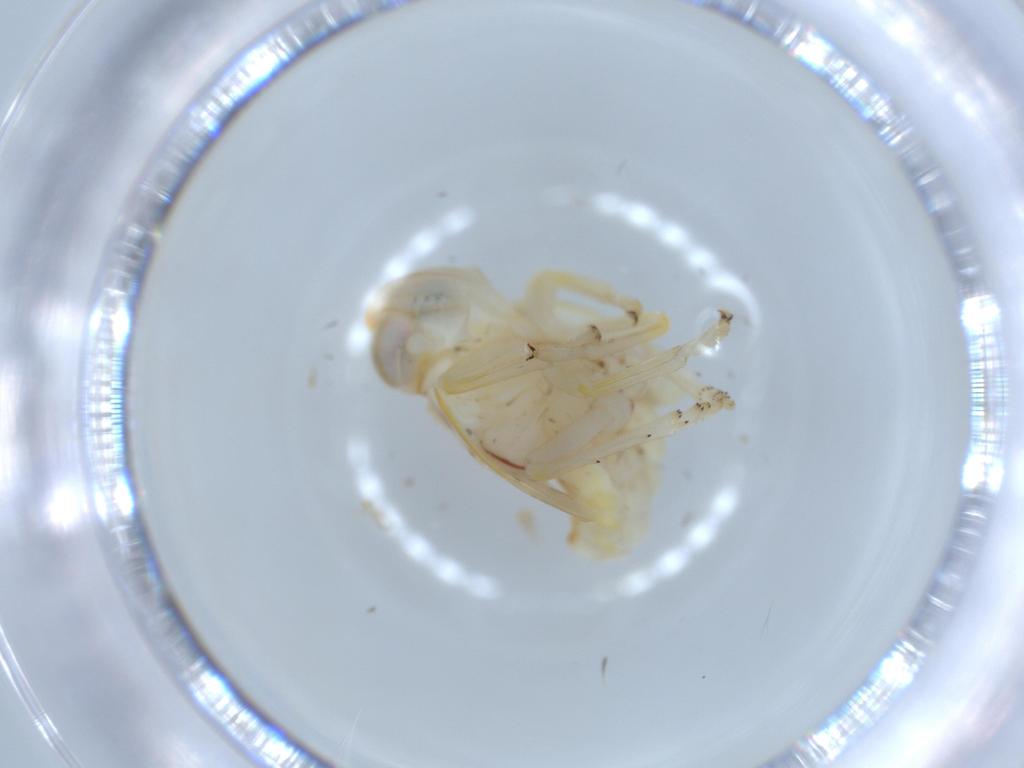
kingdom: Animalia
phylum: Arthropoda
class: Insecta
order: Hemiptera
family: Nogodinidae
